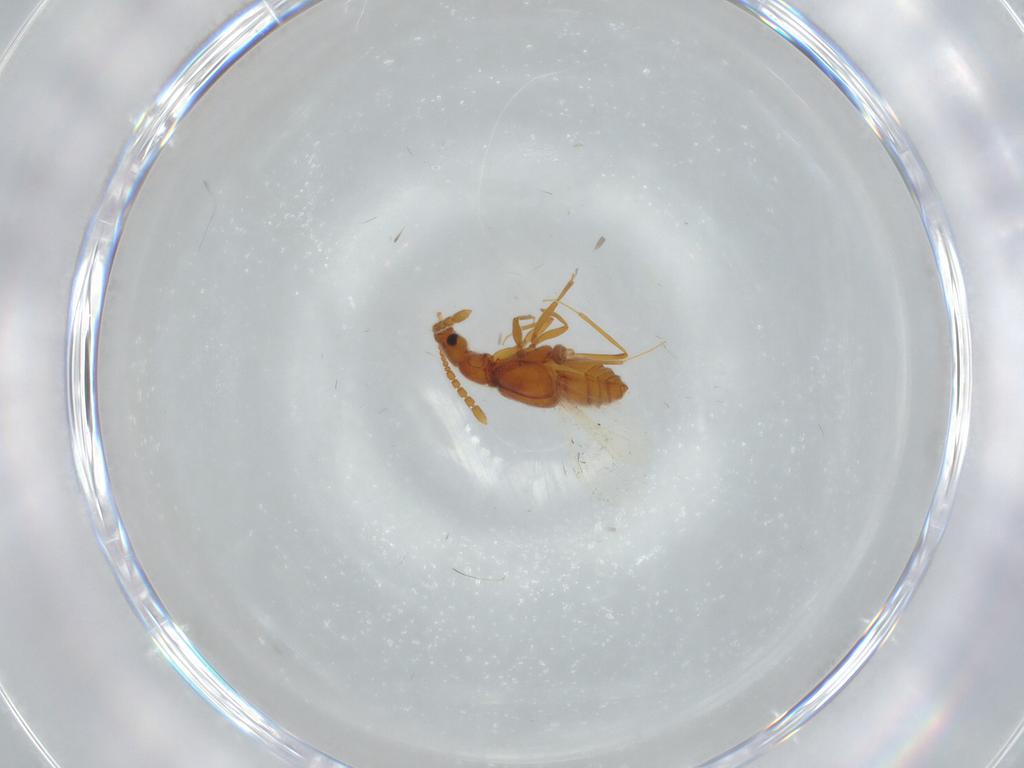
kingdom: Animalia
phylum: Arthropoda
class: Insecta
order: Coleoptera
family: Staphylinidae
